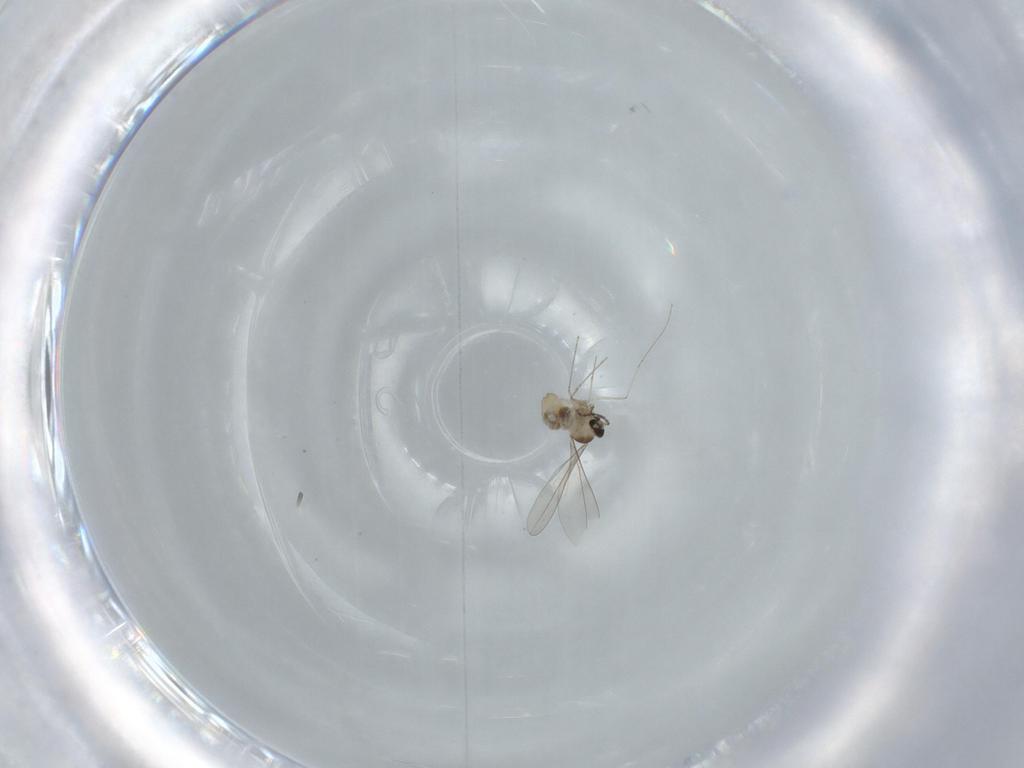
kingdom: Animalia
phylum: Arthropoda
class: Insecta
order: Diptera
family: Cecidomyiidae
